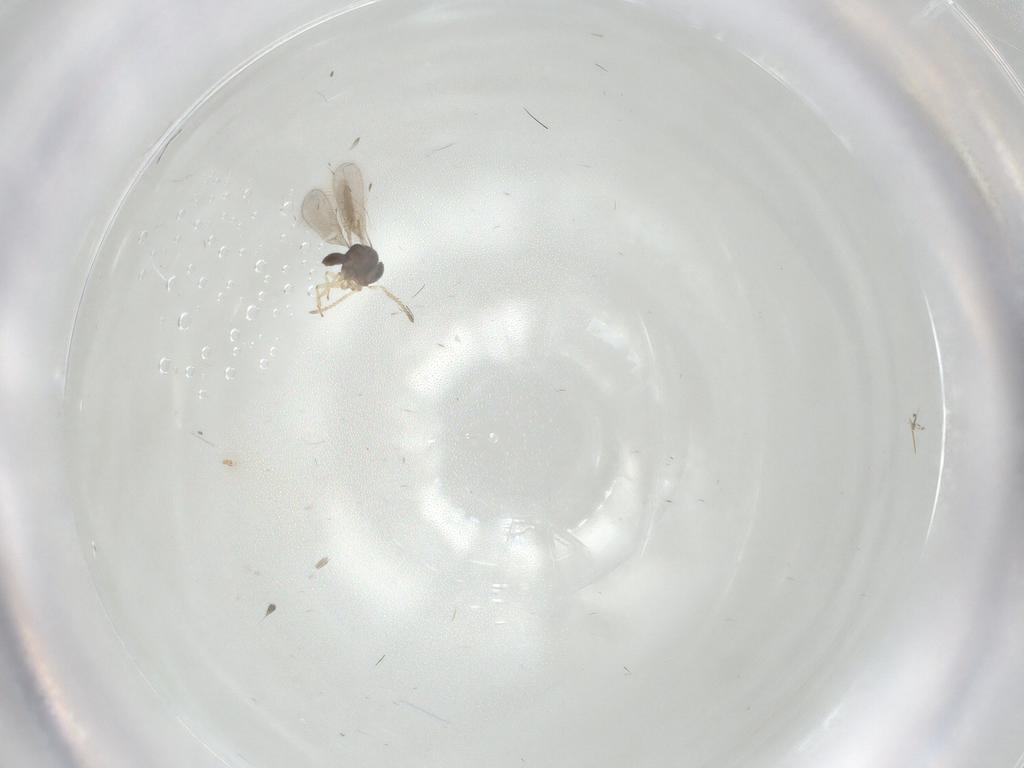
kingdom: Animalia
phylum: Arthropoda
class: Insecta
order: Hymenoptera
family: Scelionidae
